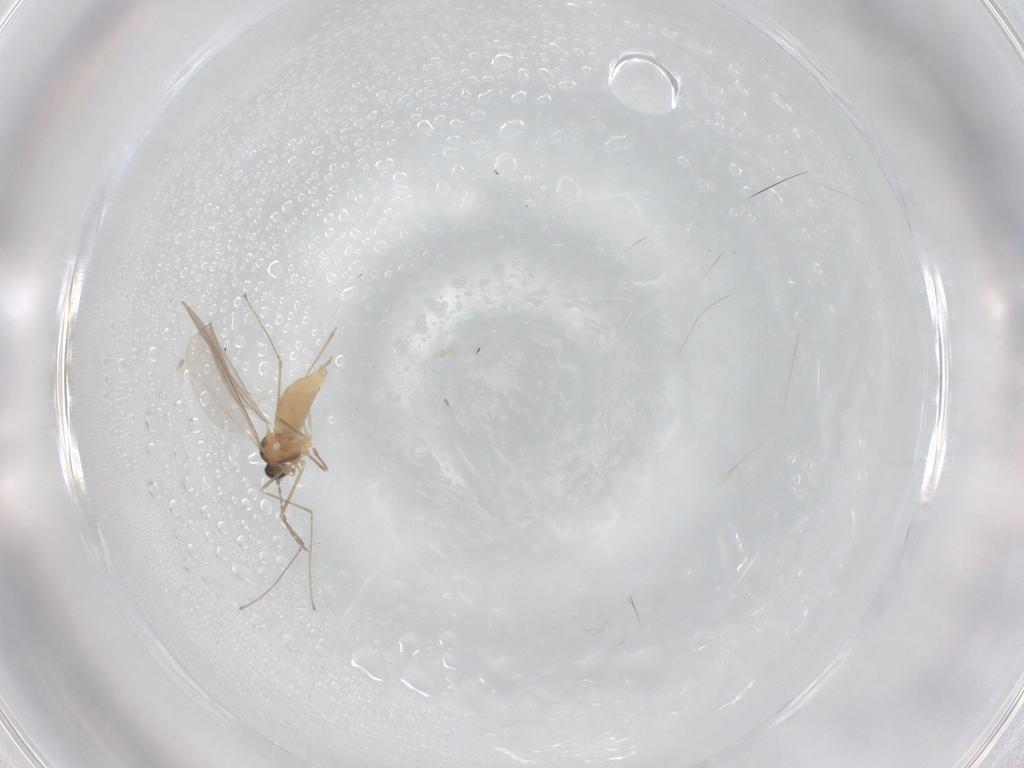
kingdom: Animalia
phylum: Arthropoda
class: Insecta
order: Diptera
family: Cecidomyiidae
